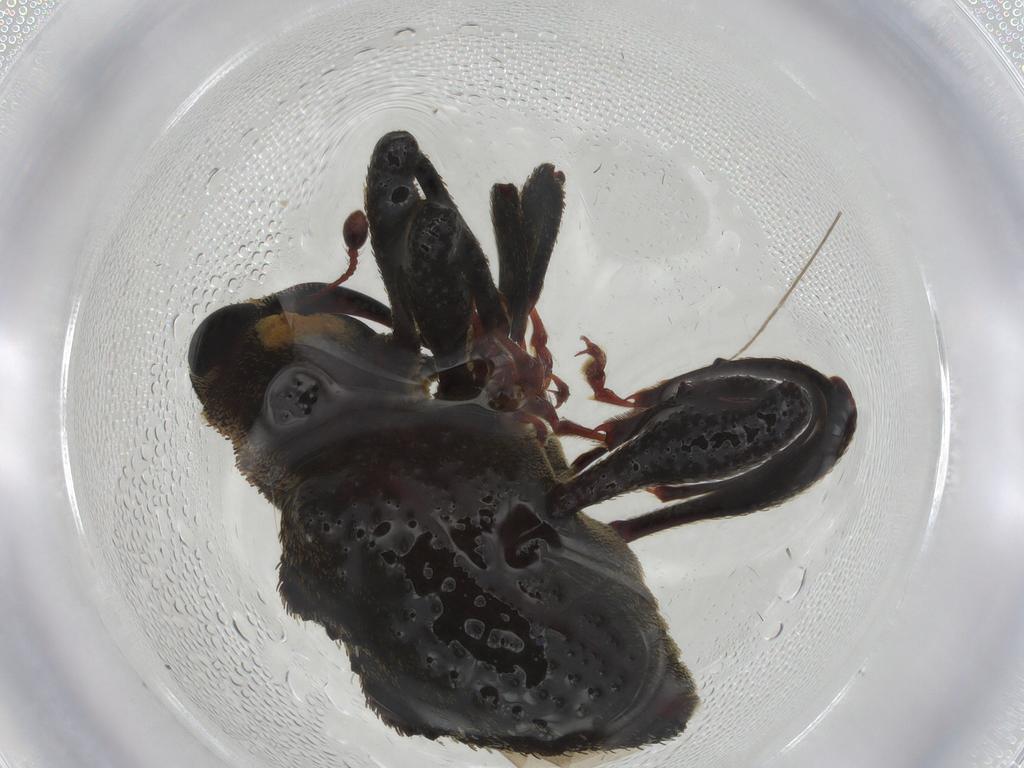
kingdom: Animalia
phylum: Arthropoda
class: Insecta
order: Coleoptera
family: Curculionidae
